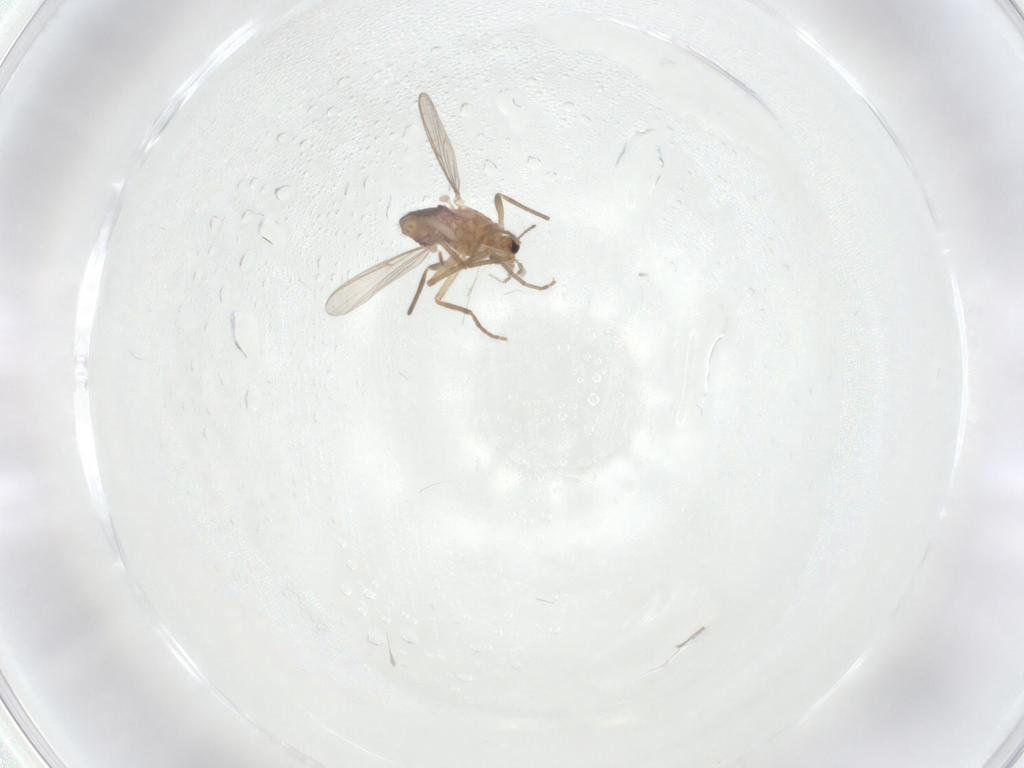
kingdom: Animalia
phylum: Arthropoda
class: Insecta
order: Diptera
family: Chironomidae
